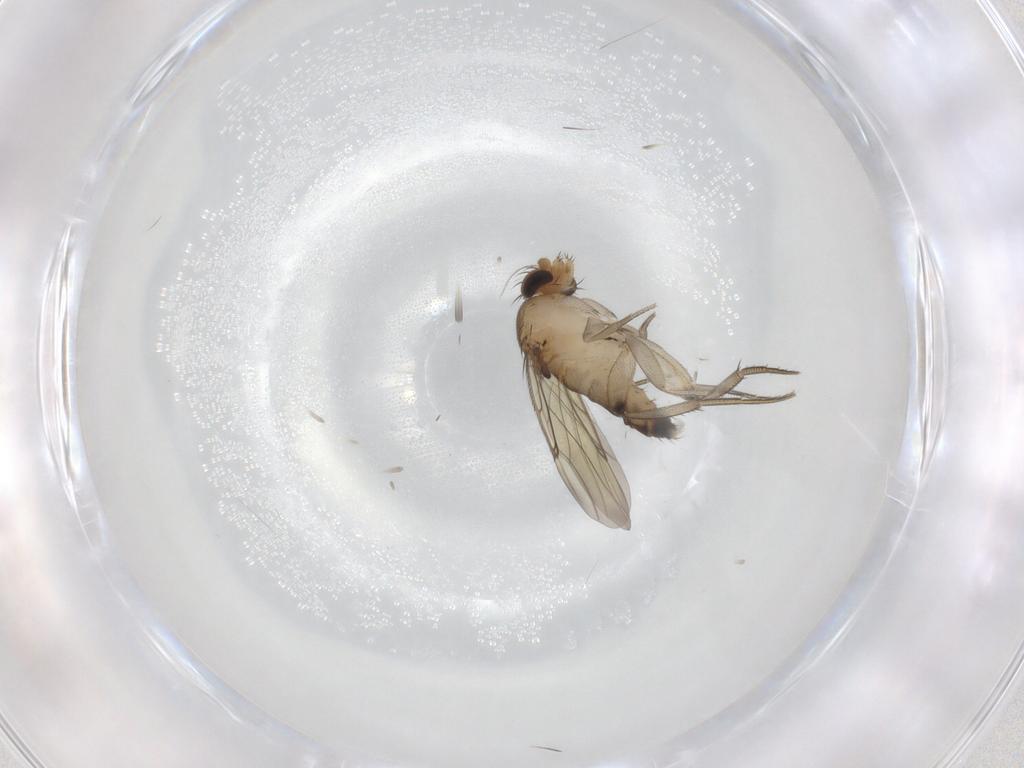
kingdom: Animalia
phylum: Arthropoda
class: Insecta
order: Diptera
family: Phoridae
